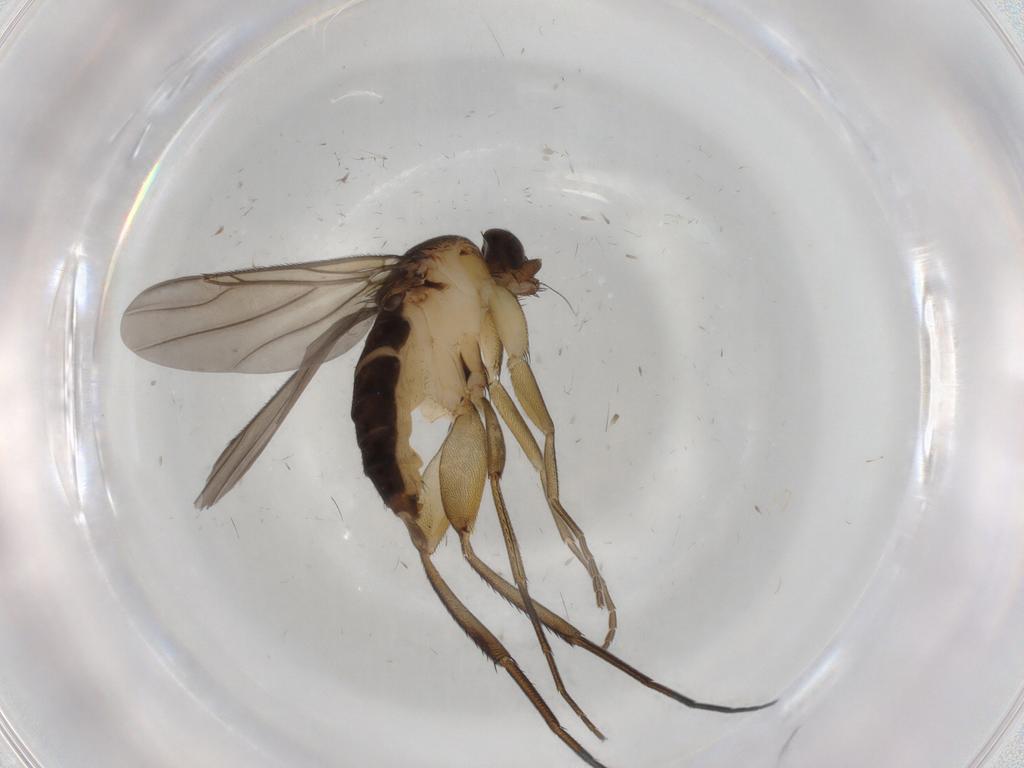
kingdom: Animalia
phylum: Arthropoda
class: Insecta
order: Diptera
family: Phoridae
